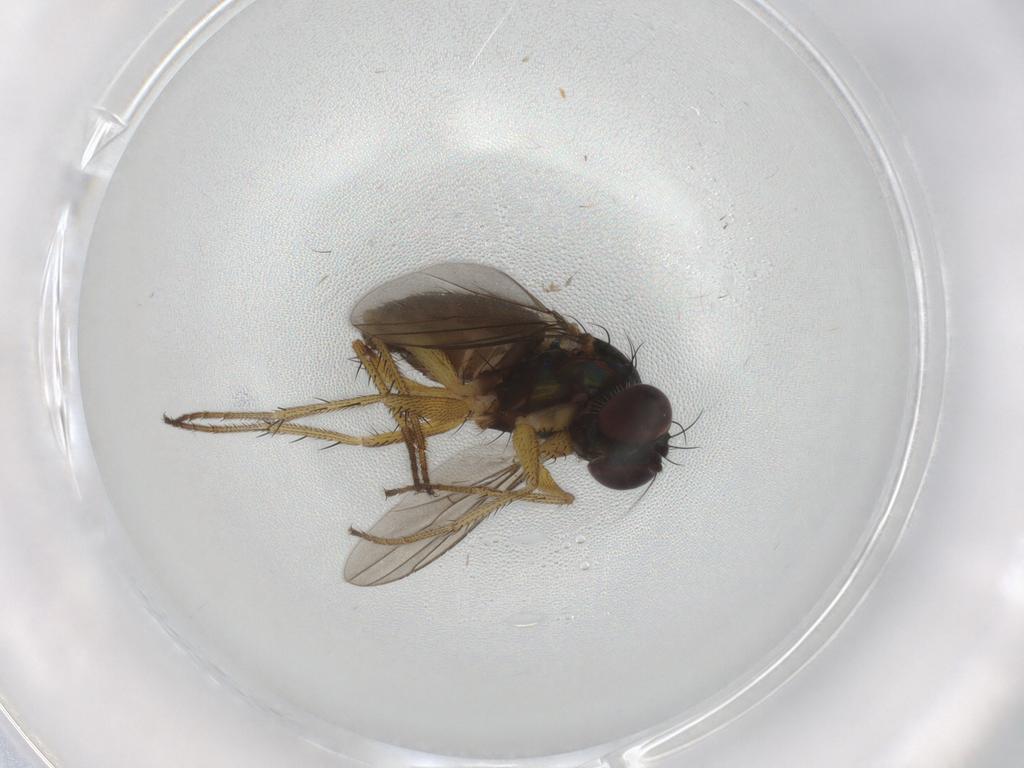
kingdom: Animalia
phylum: Arthropoda
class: Insecta
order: Diptera
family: Dolichopodidae
